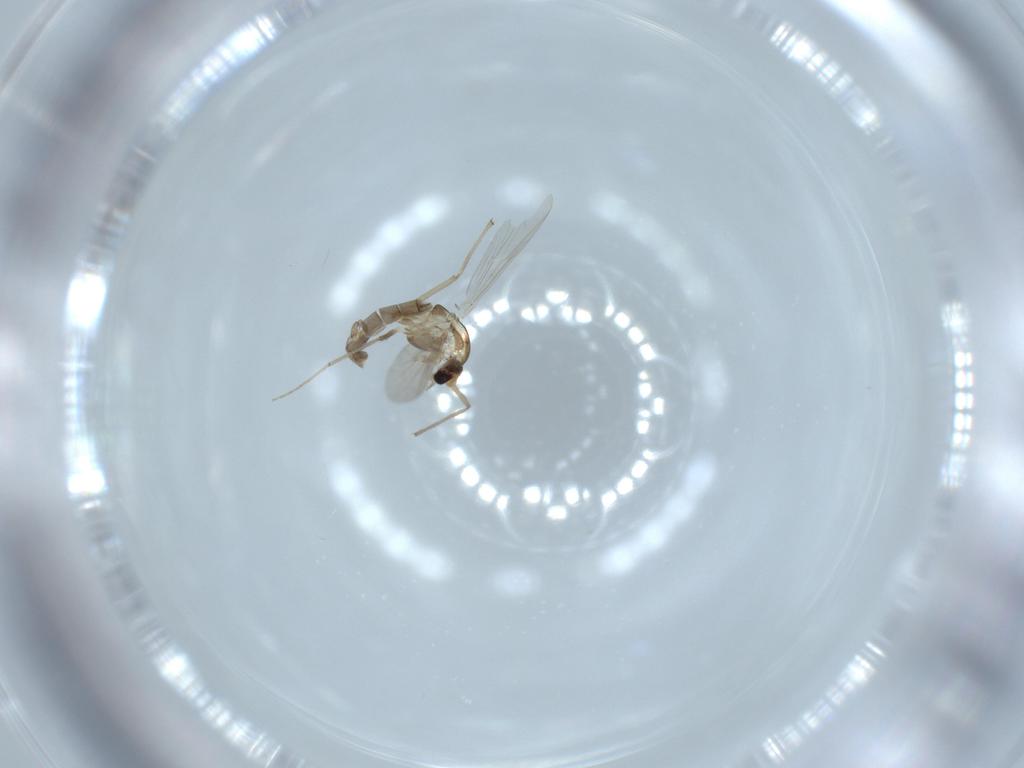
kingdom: Animalia
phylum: Arthropoda
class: Insecta
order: Diptera
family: Chironomidae
